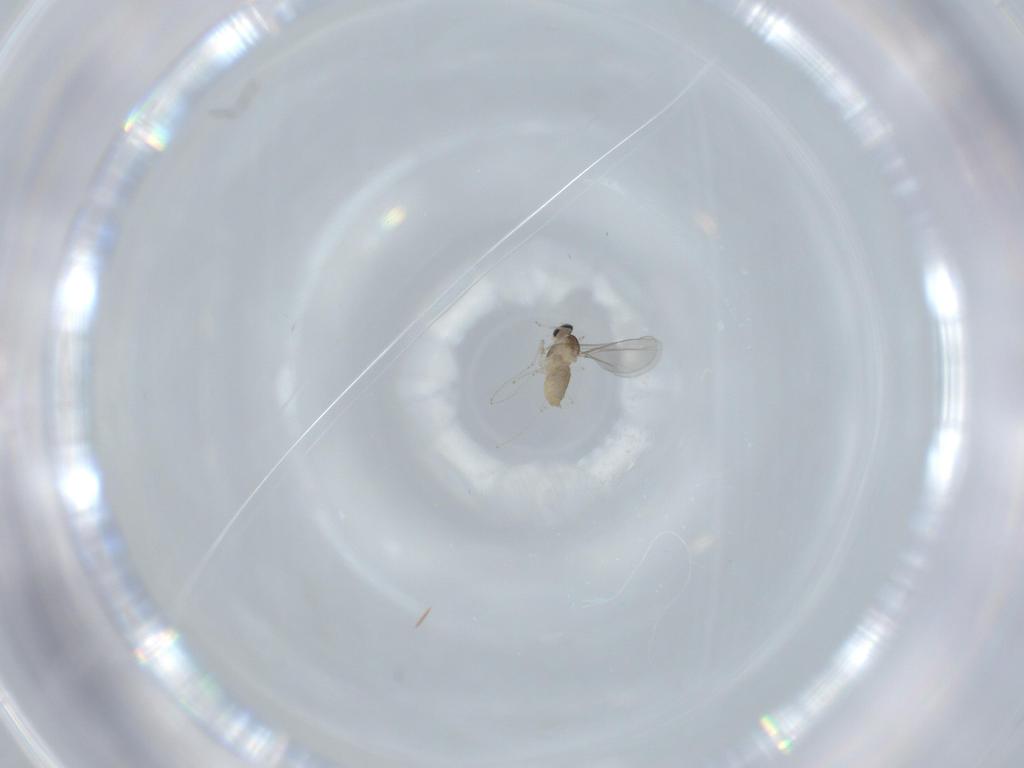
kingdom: Animalia
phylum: Arthropoda
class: Insecta
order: Diptera
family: Cecidomyiidae
